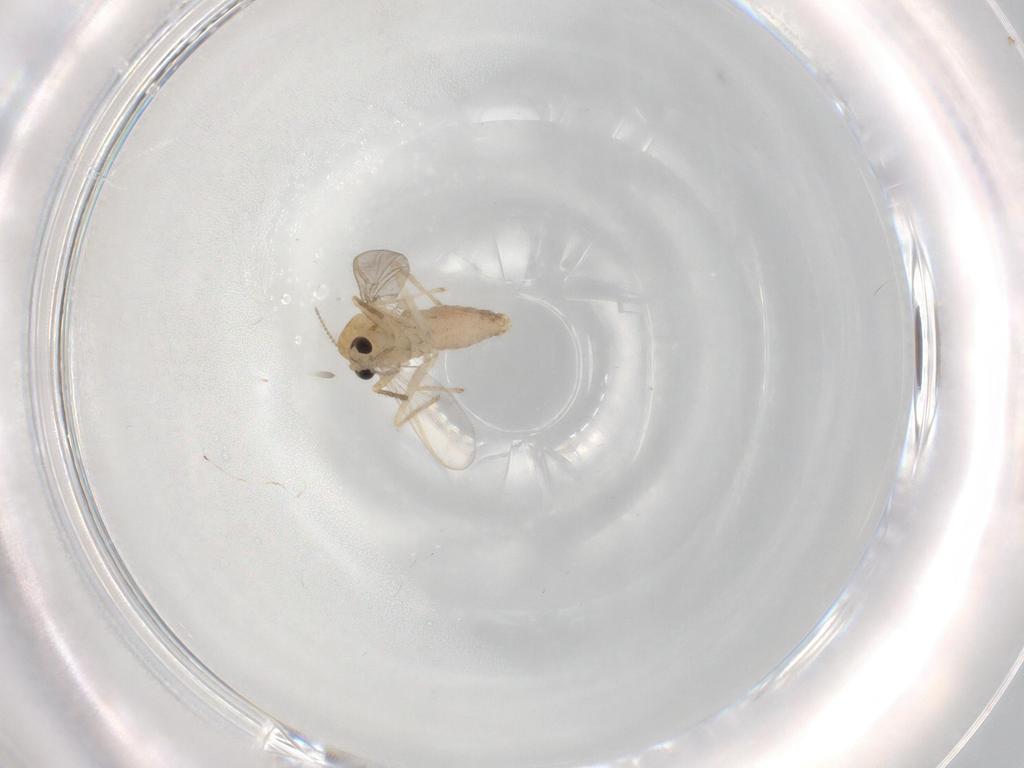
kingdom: Animalia
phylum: Arthropoda
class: Insecta
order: Diptera
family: Chironomidae
